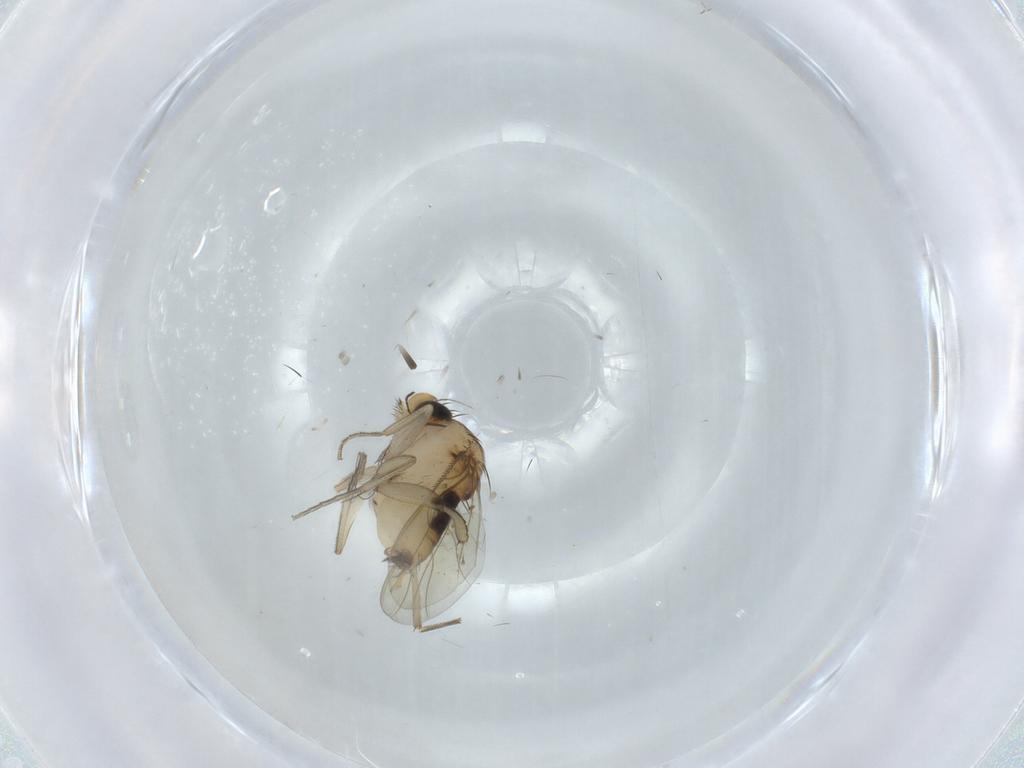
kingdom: Animalia
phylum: Arthropoda
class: Insecta
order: Diptera
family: Phoridae
